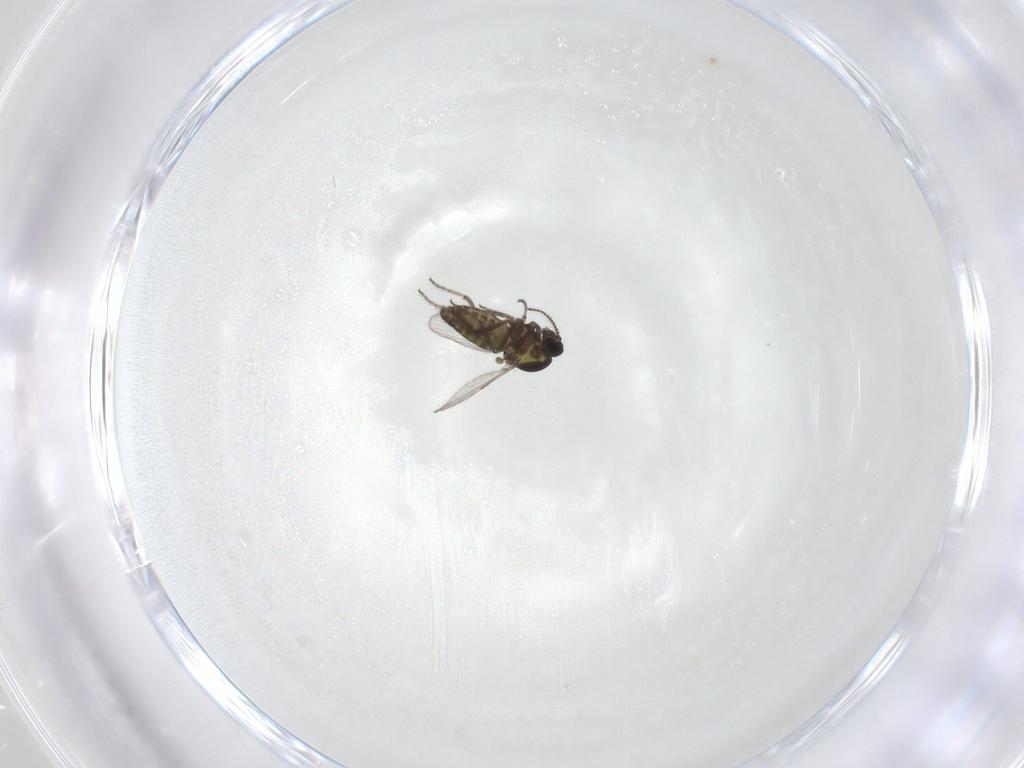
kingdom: Animalia
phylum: Arthropoda
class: Insecta
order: Diptera
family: Chironomidae
